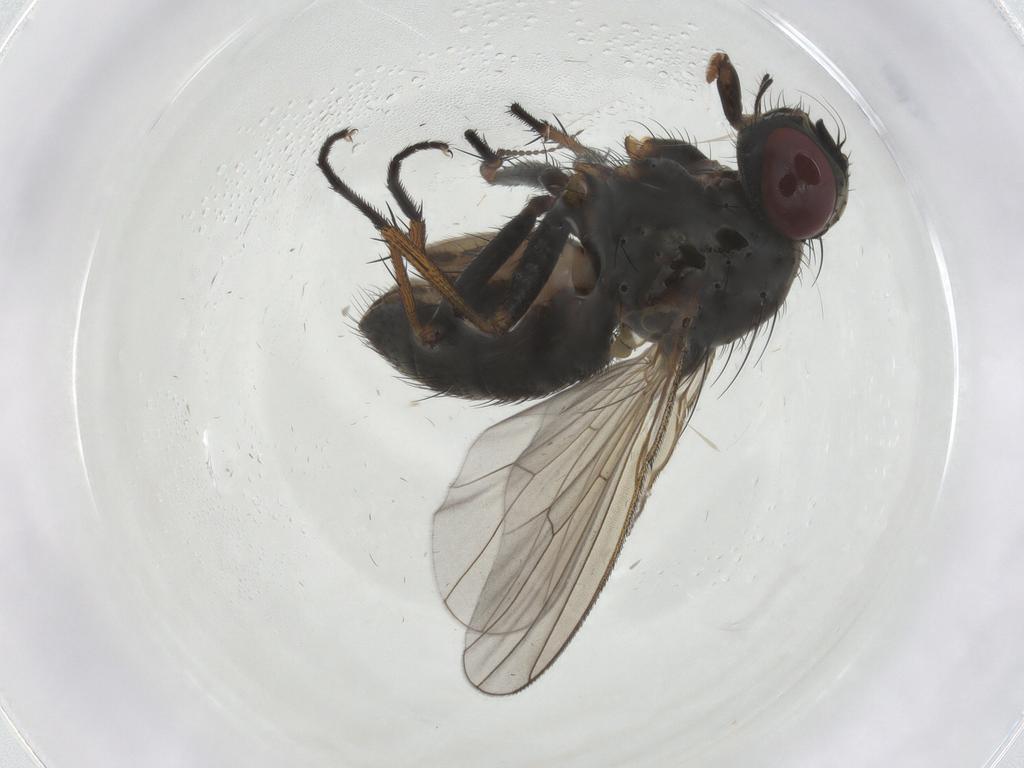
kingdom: Animalia
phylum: Arthropoda
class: Insecta
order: Diptera
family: Muscidae
